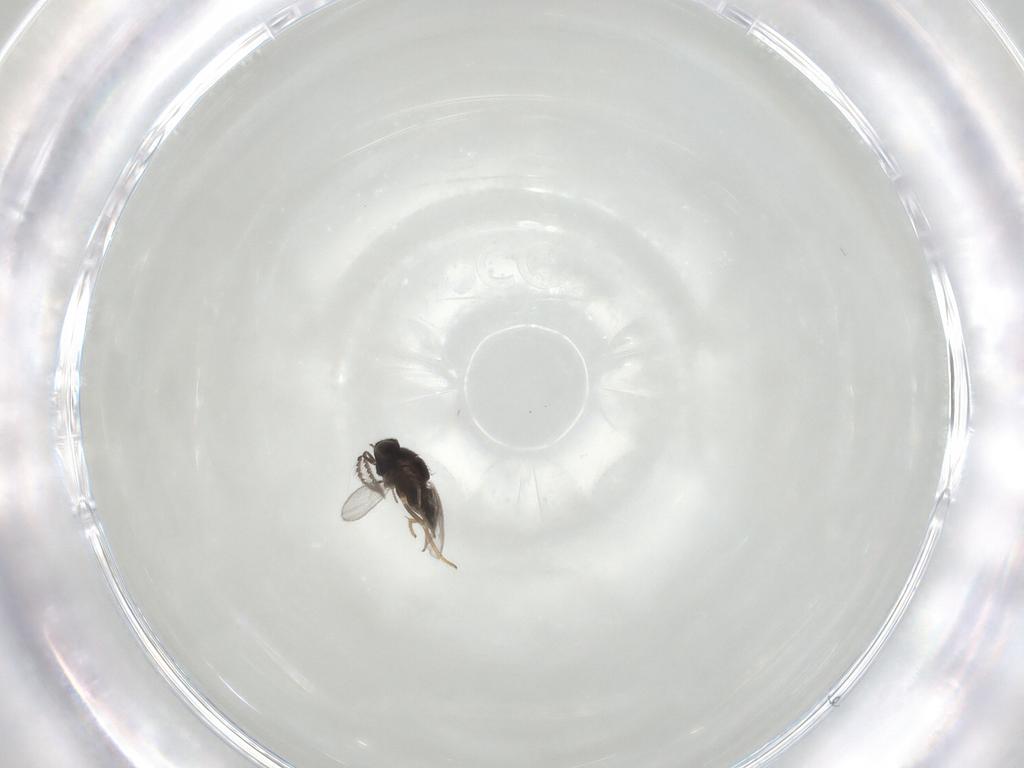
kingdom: Animalia
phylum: Arthropoda
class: Insecta
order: Hymenoptera
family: Encyrtidae
